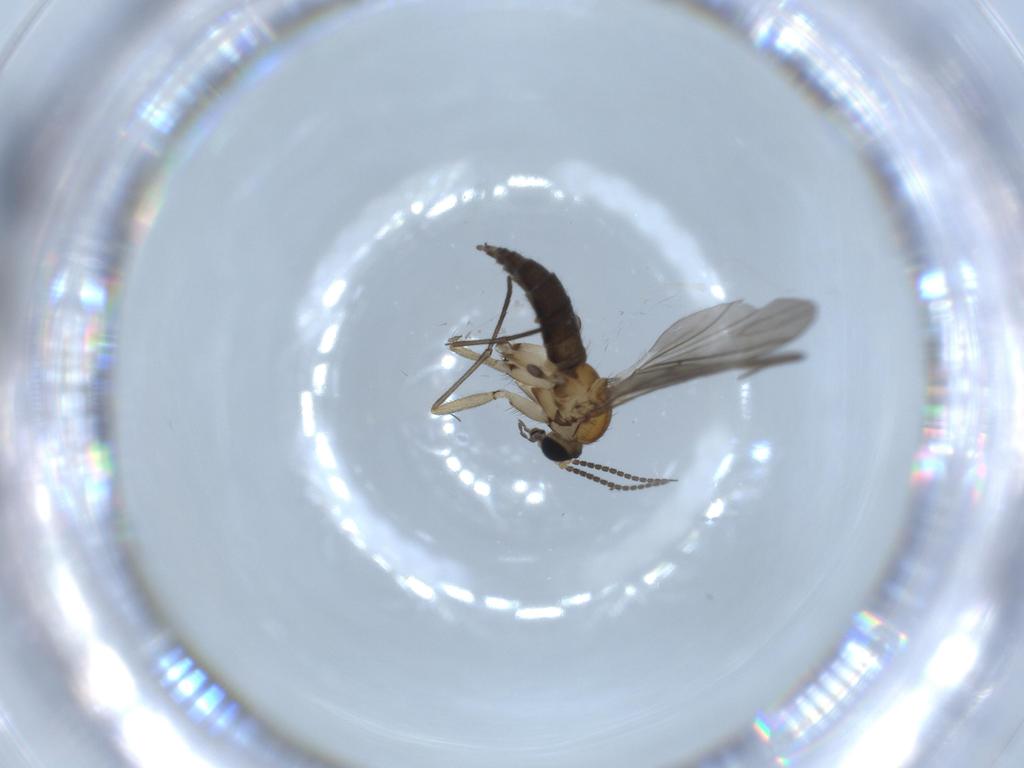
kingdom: Animalia
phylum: Arthropoda
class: Insecta
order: Diptera
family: Sciaridae
